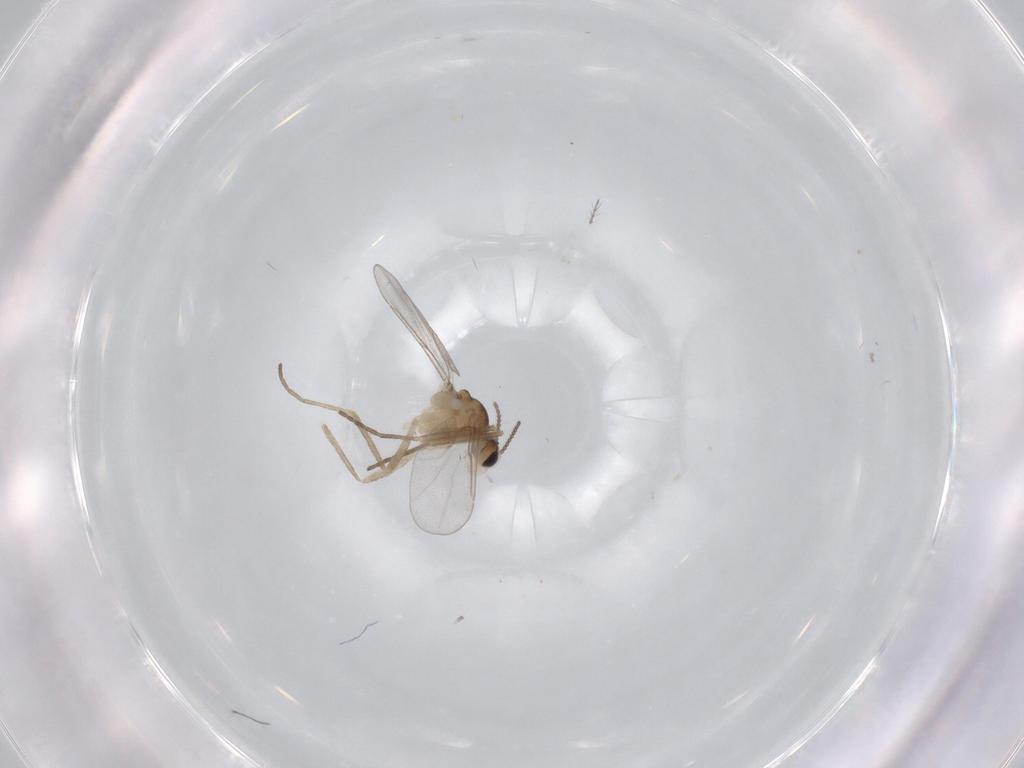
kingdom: Animalia
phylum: Arthropoda
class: Insecta
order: Diptera
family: Cecidomyiidae
